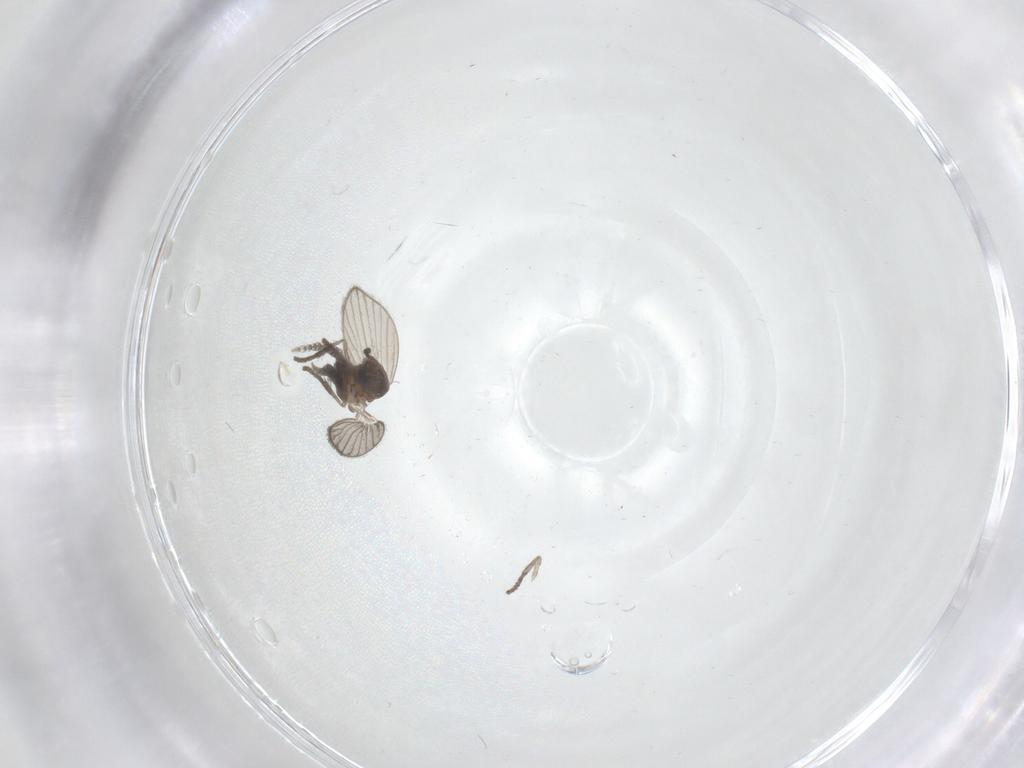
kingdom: Animalia
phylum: Arthropoda
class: Insecta
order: Diptera
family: Psychodidae
